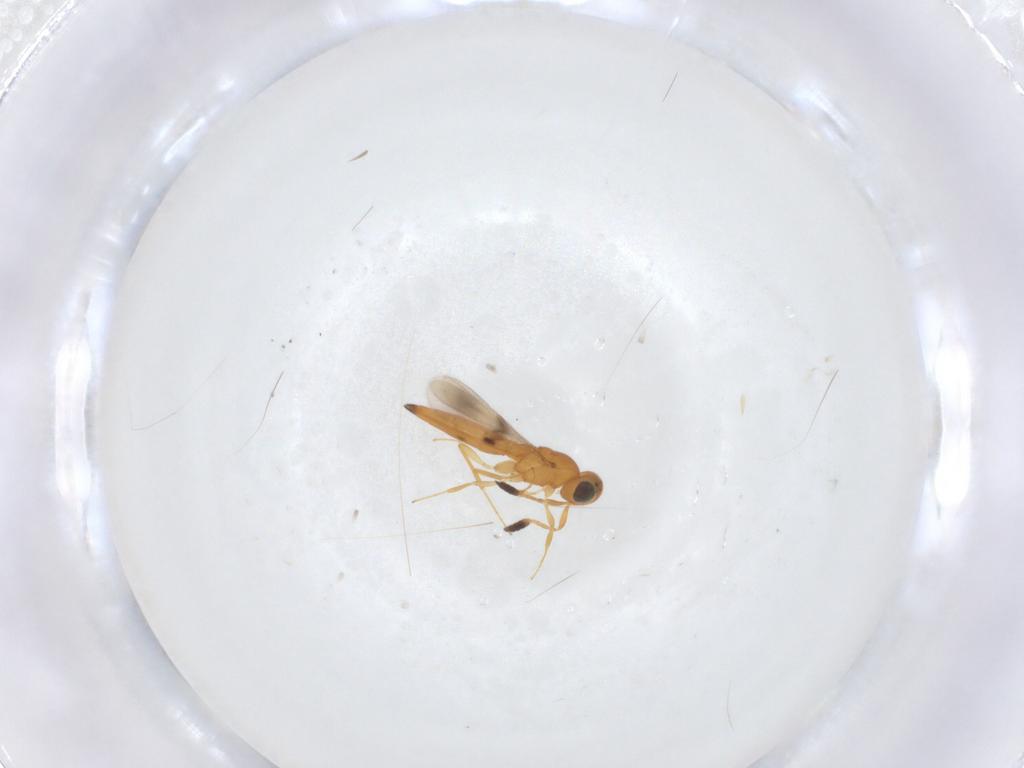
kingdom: Animalia
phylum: Arthropoda
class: Insecta
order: Hymenoptera
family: Scelionidae
